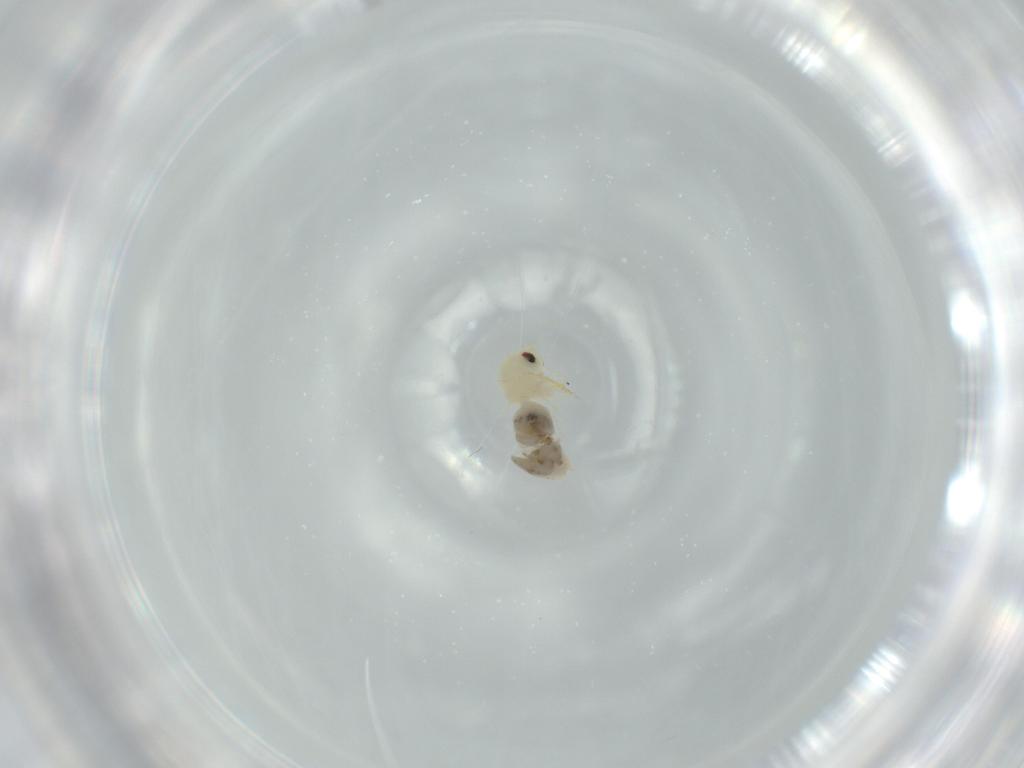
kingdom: Animalia
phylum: Arthropoda
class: Insecta
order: Hemiptera
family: Aleyrodidae
